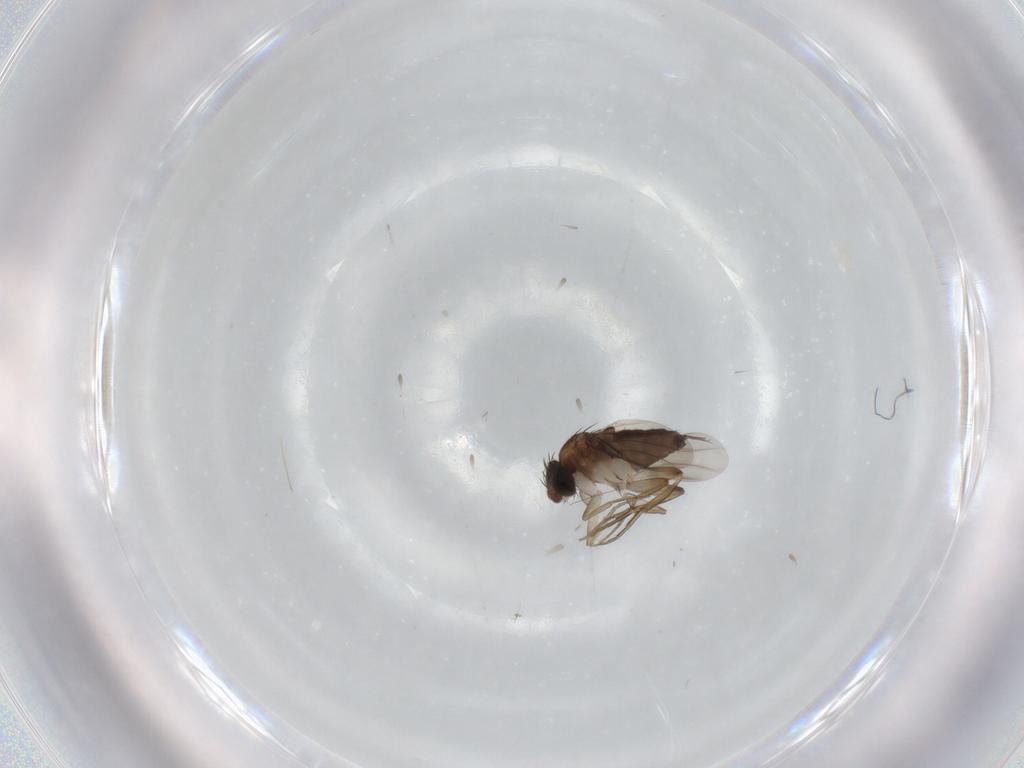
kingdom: Animalia
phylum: Arthropoda
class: Insecta
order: Diptera
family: Phoridae
